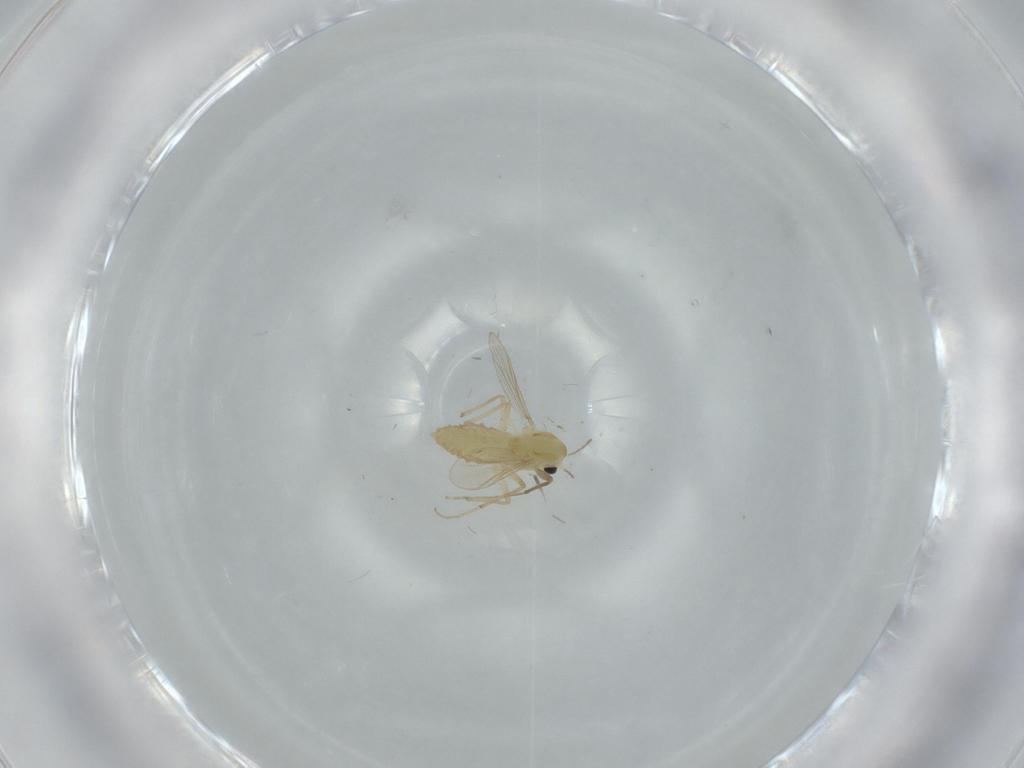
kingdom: Animalia
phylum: Arthropoda
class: Insecta
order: Diptera
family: Chironomidae
